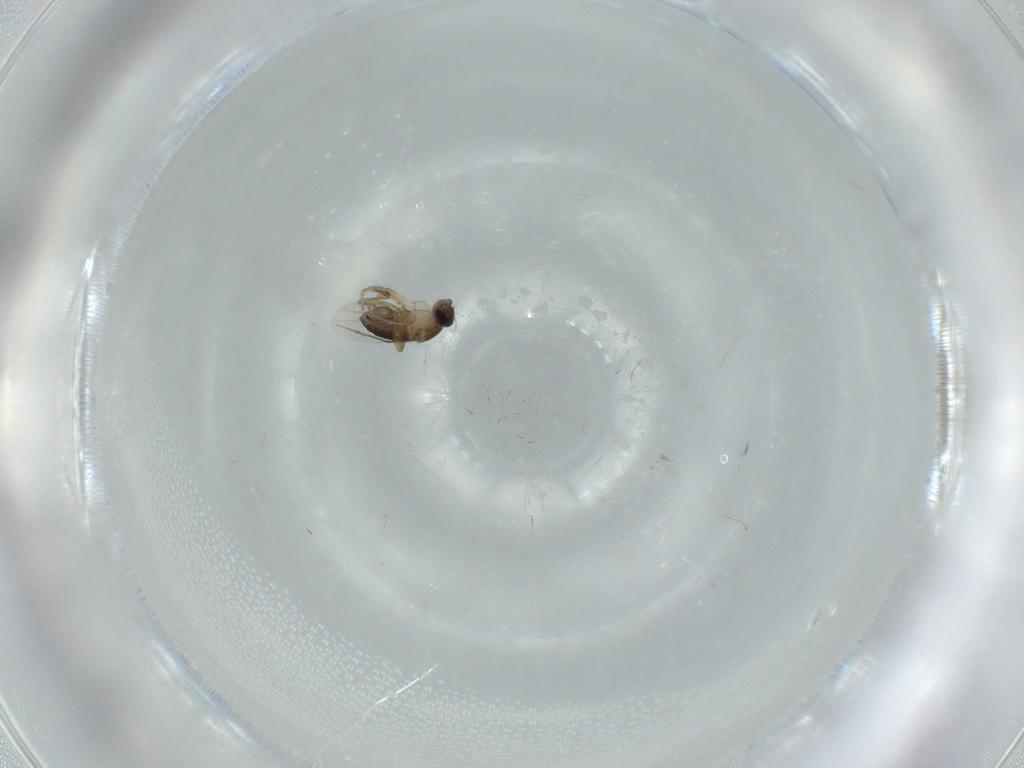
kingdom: Animalia
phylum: Arthropoda
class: Insecta
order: Diptera
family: Phoridae
